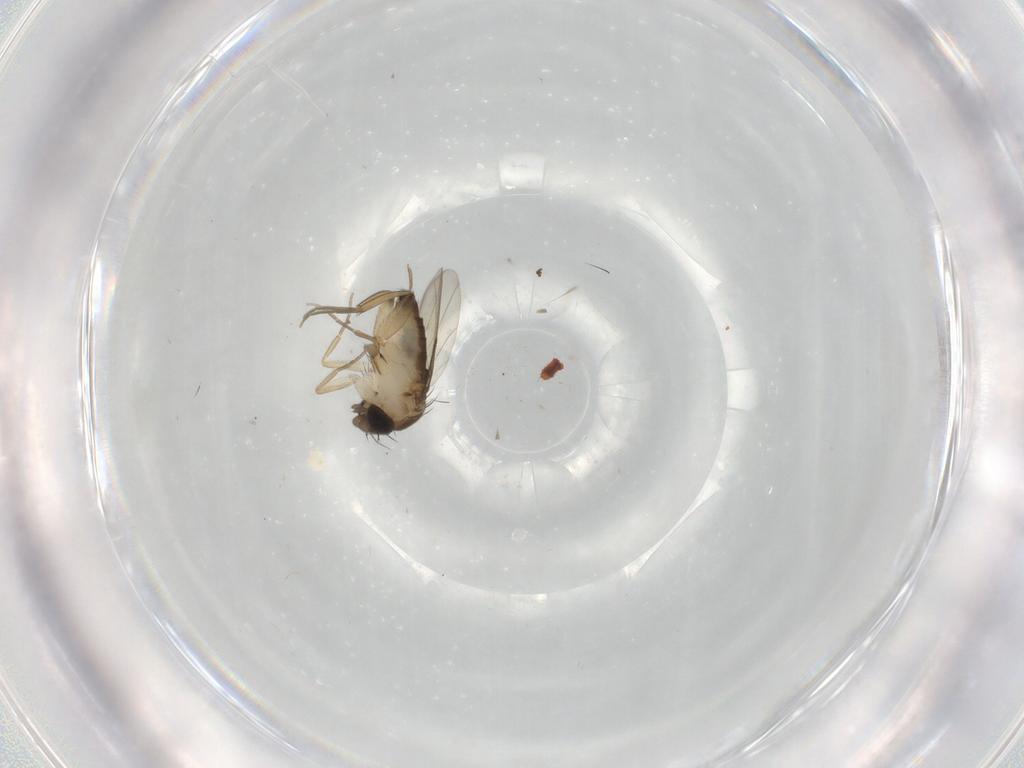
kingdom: Animalia
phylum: Arthropoda
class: Insecta
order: Diptera
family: Phoridae
